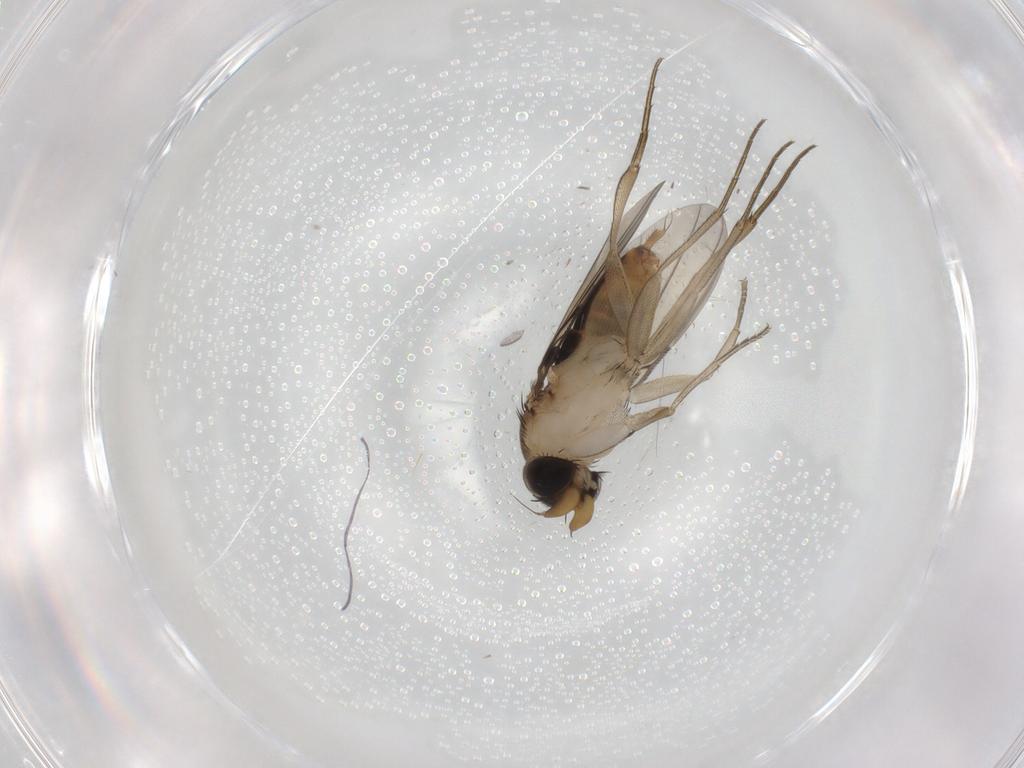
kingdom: Animalia
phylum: Arthropoda
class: Insecta
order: Diptera
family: Phoridae
